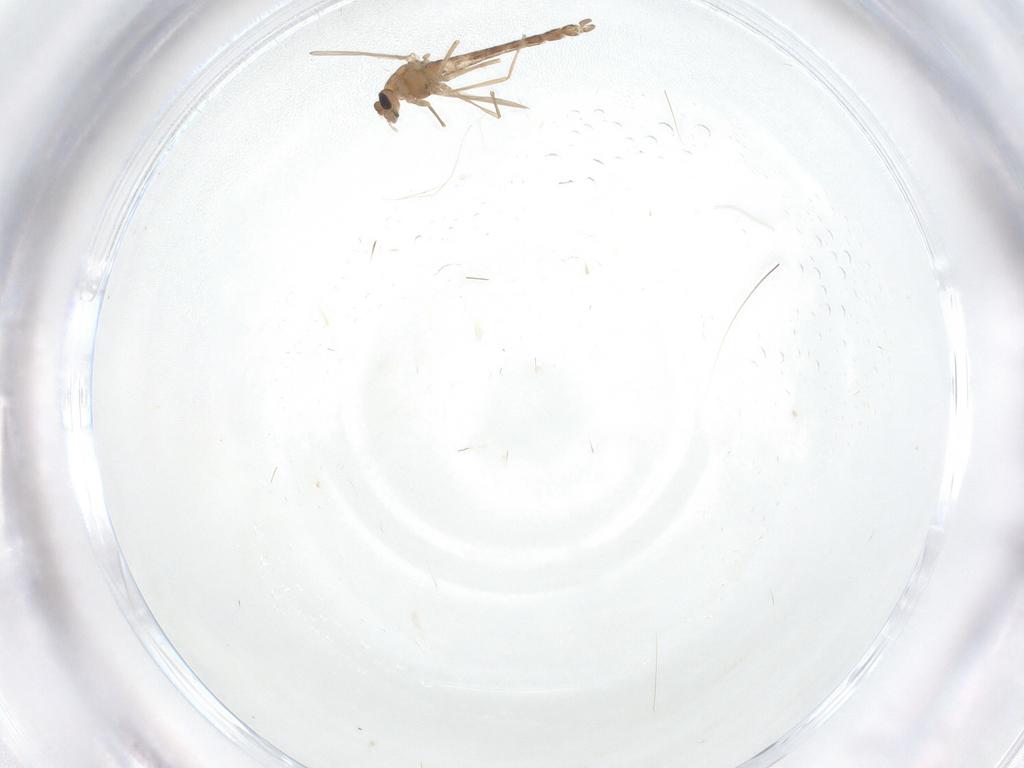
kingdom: Animalia
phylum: Arthropoda
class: Insecta
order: Diptera
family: Chironomidae
